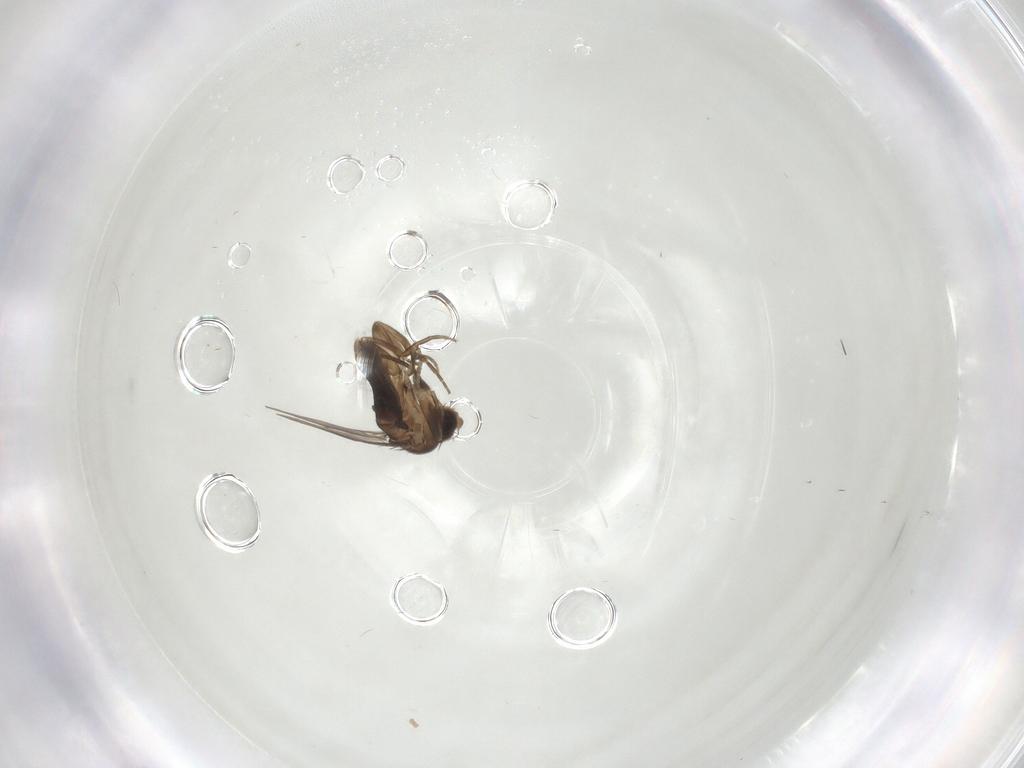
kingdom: Animalia
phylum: Arthropoda
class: Insecta
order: Diptera
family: Phoridae
